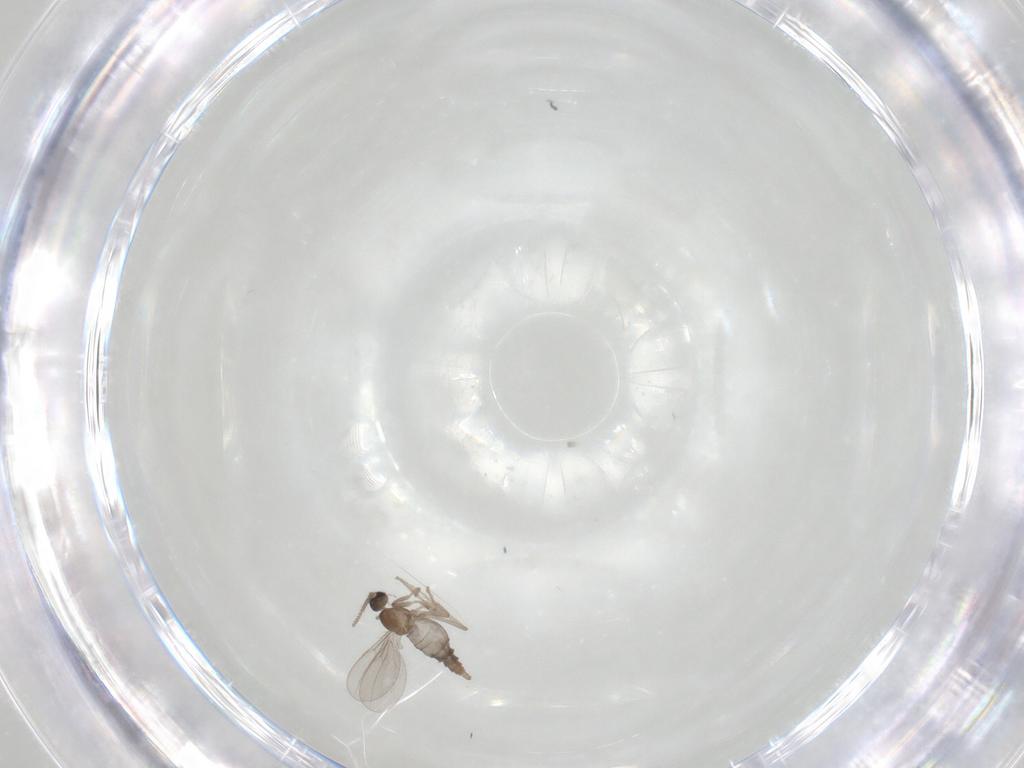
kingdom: Animalia
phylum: Arthropoda
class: Insecta
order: Diptera
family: Cecidomyiidae
